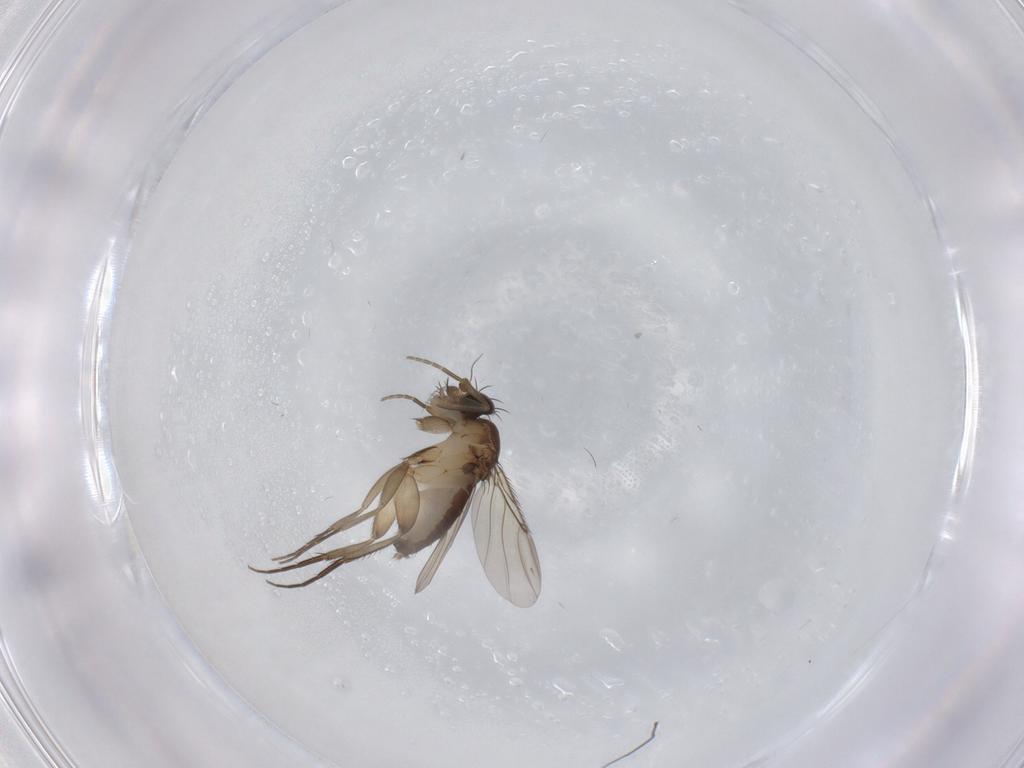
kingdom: Animalia
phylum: Arthropoda
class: Insecta
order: Diptera
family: Phoridae
